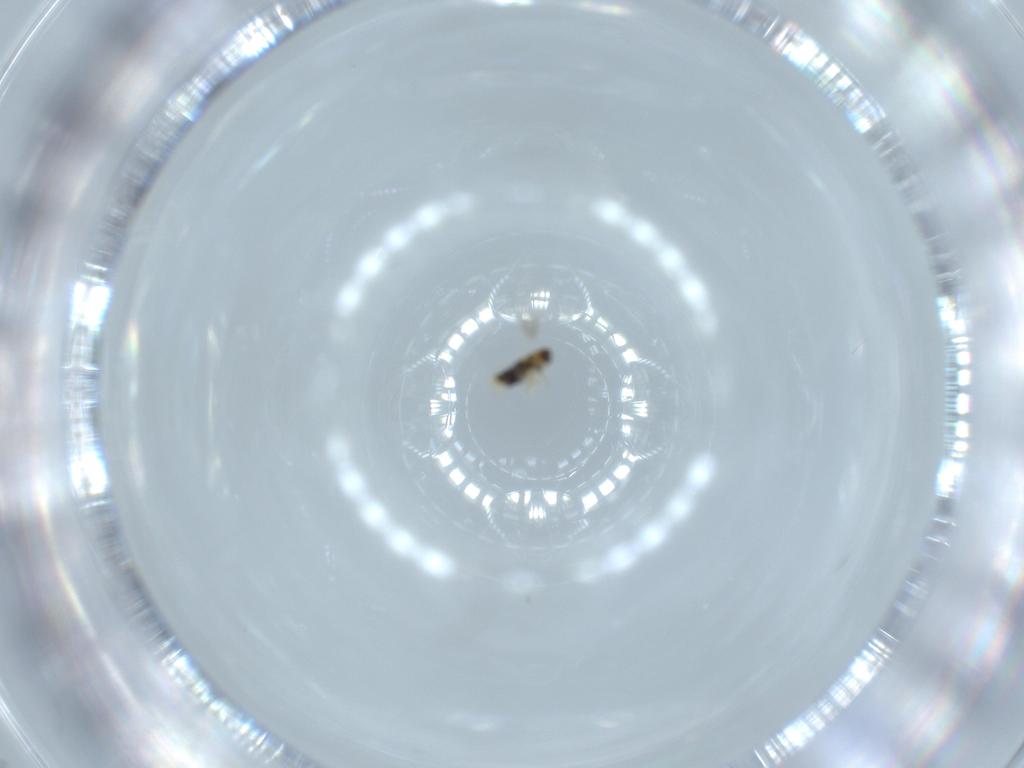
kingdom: Animalia
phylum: Arthropoda
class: Insecta
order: Hymenoptera
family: Aphelinidae
